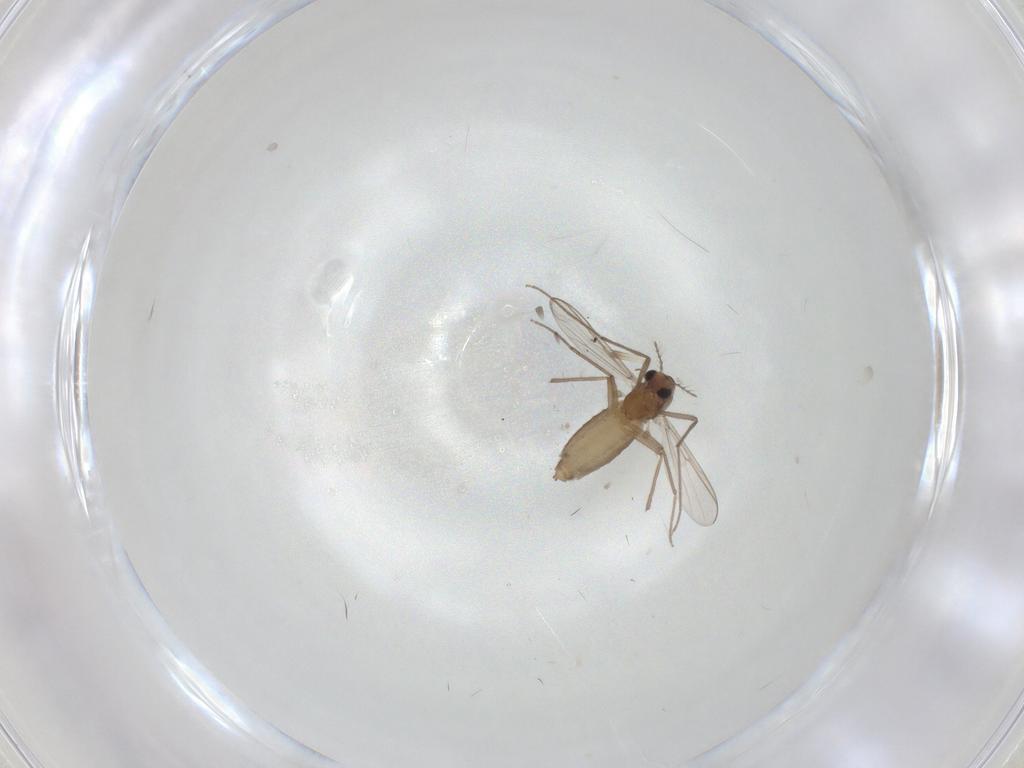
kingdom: Animalia
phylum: Arthropoda
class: Insecta
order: Diptera
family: Chironomidae
